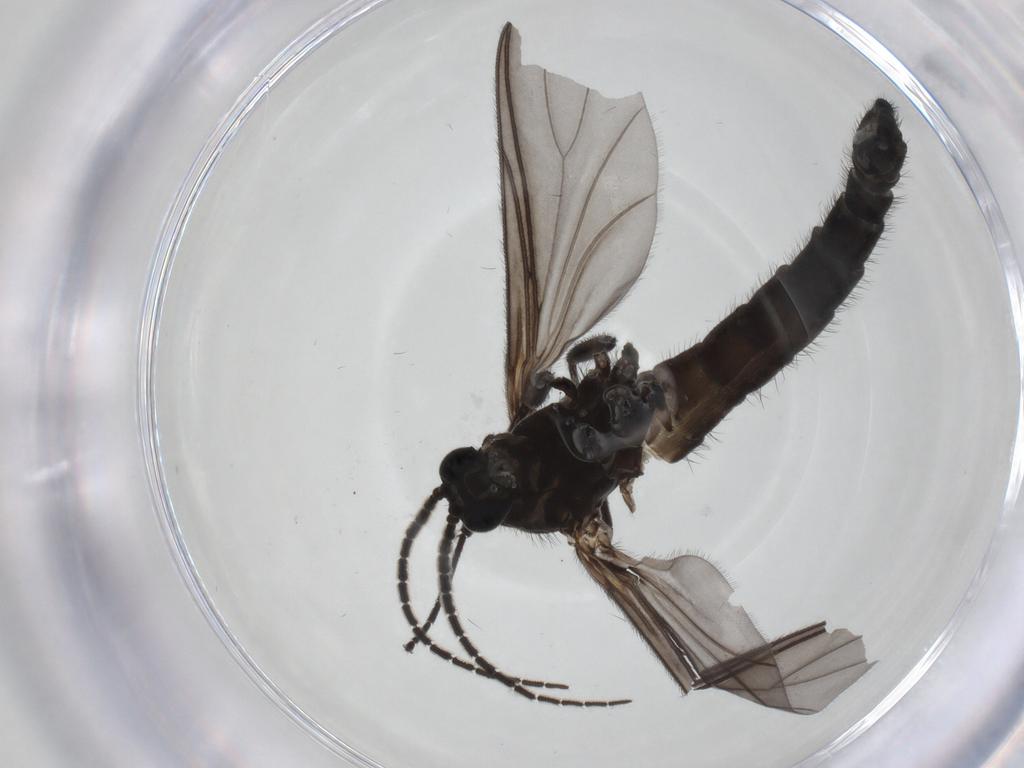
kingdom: Animalia
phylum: Arthropoda
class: Insecta
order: Diptera
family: Sciaridae
